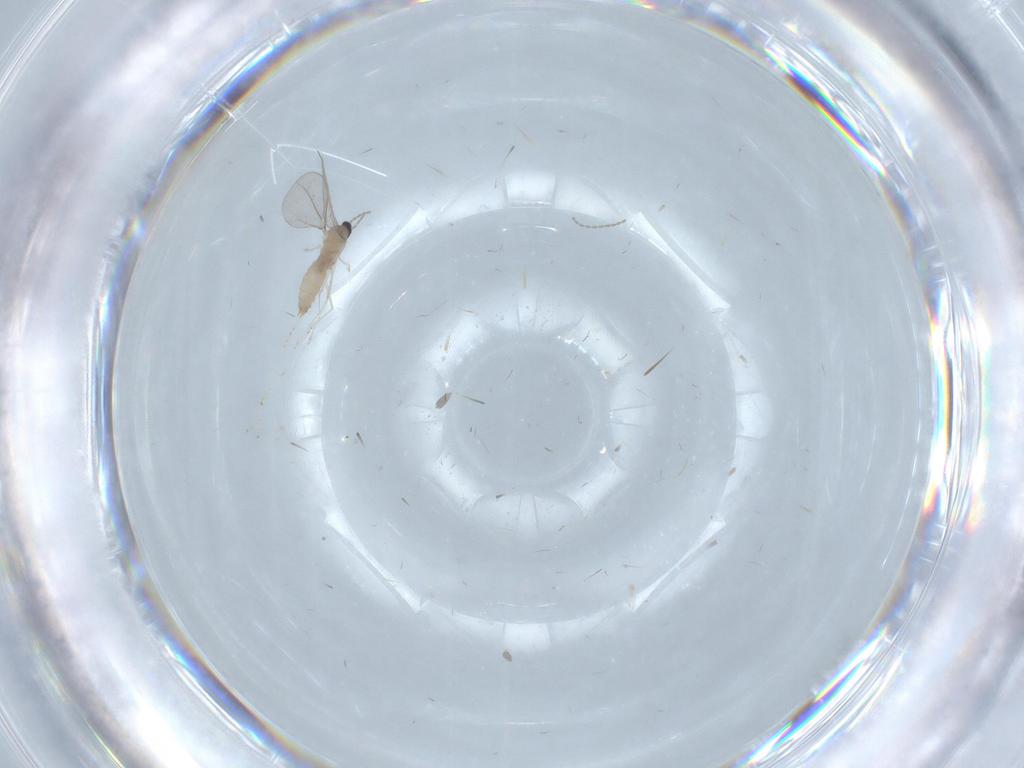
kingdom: Animalia
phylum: Arthropoda
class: Insecta
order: Diptera
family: Cecidomyiidae
